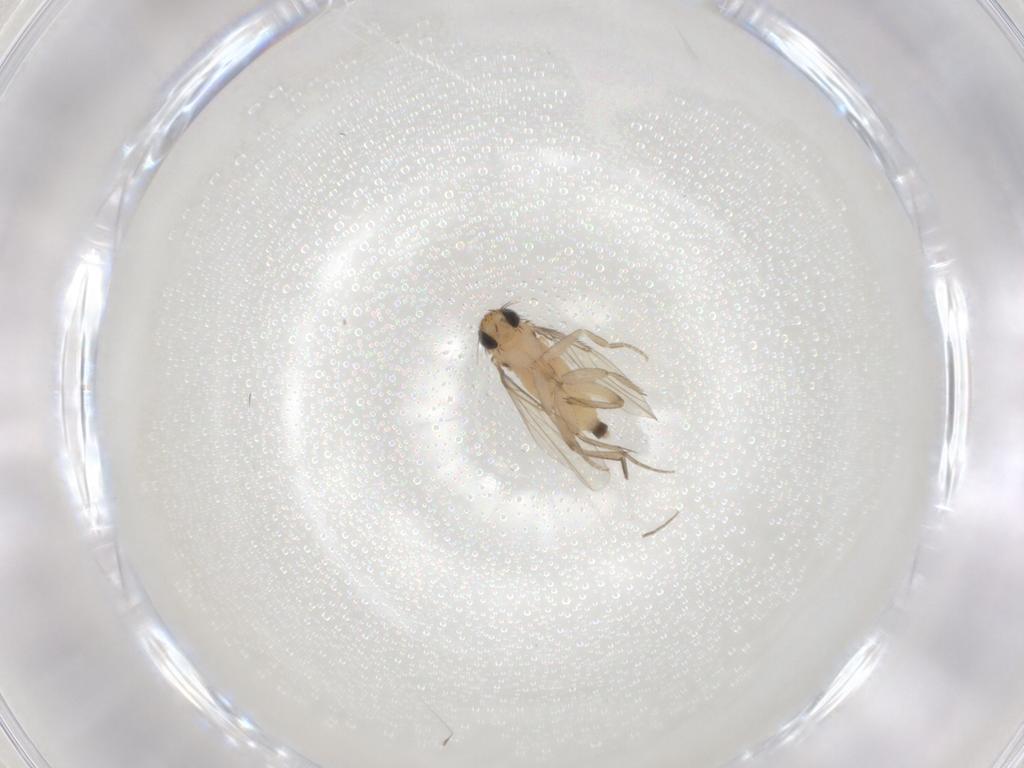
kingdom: Animalia
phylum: Arthropoda
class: Insecta
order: Diptera
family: Phoridae
